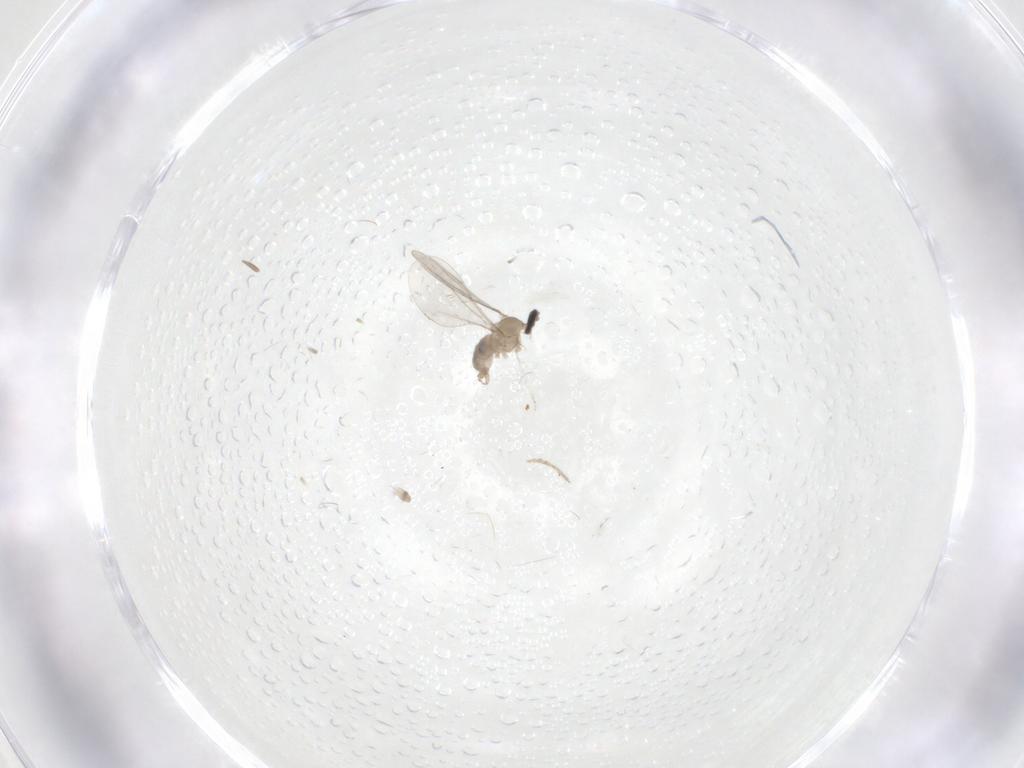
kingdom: Animalia
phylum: Arthropoda
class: Insecta
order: Diptera
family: Cecidomyiidae
